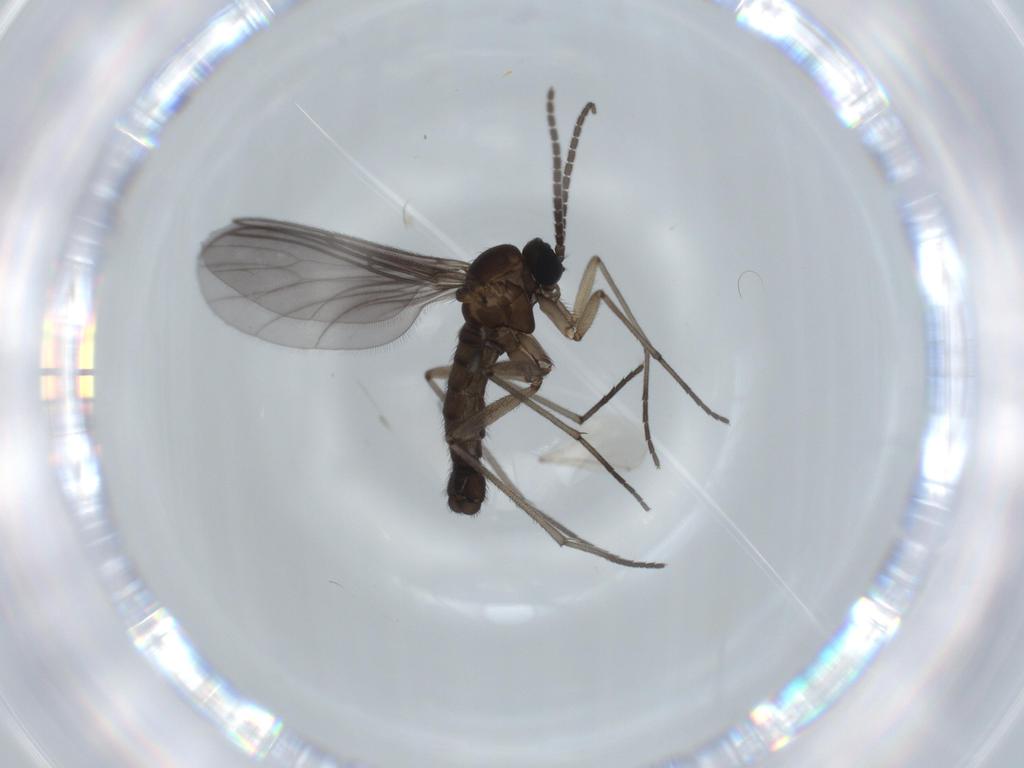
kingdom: Animalia
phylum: Arthropoda
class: Insecta
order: Diptera
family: Sciaridae
